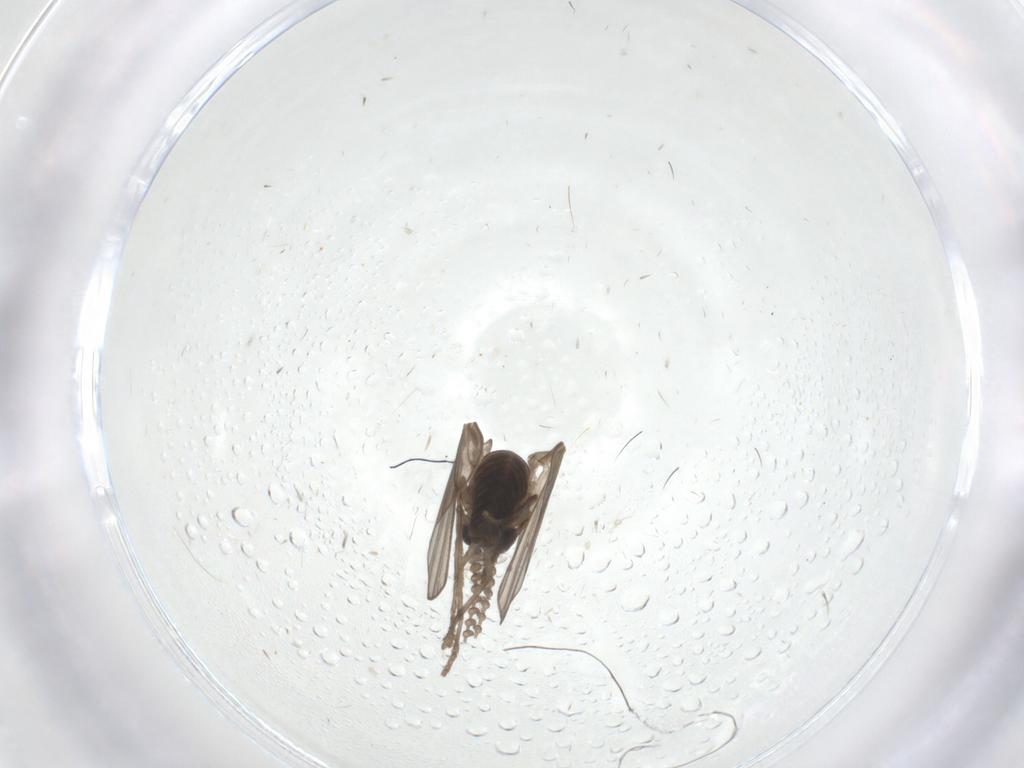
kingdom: Animalia
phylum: Arthropoda
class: Insecta
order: Diptera
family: Psychodidae
